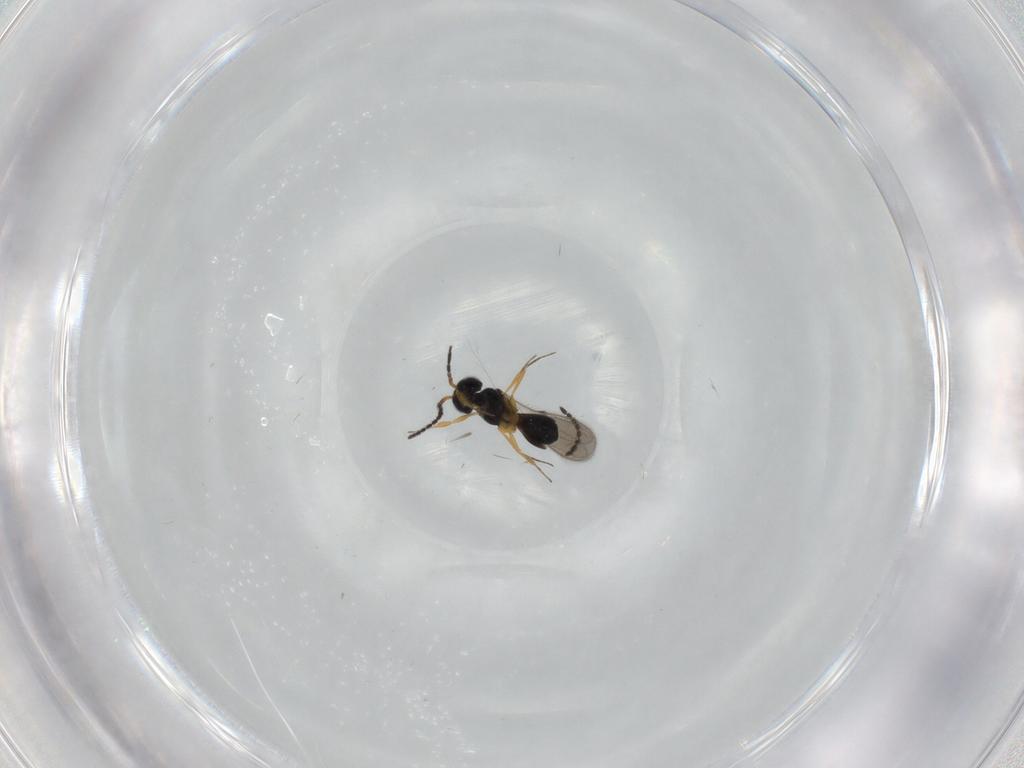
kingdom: Animalia
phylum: Arthropoda
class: Insecta
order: Hymenoptera
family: Scelionidae
